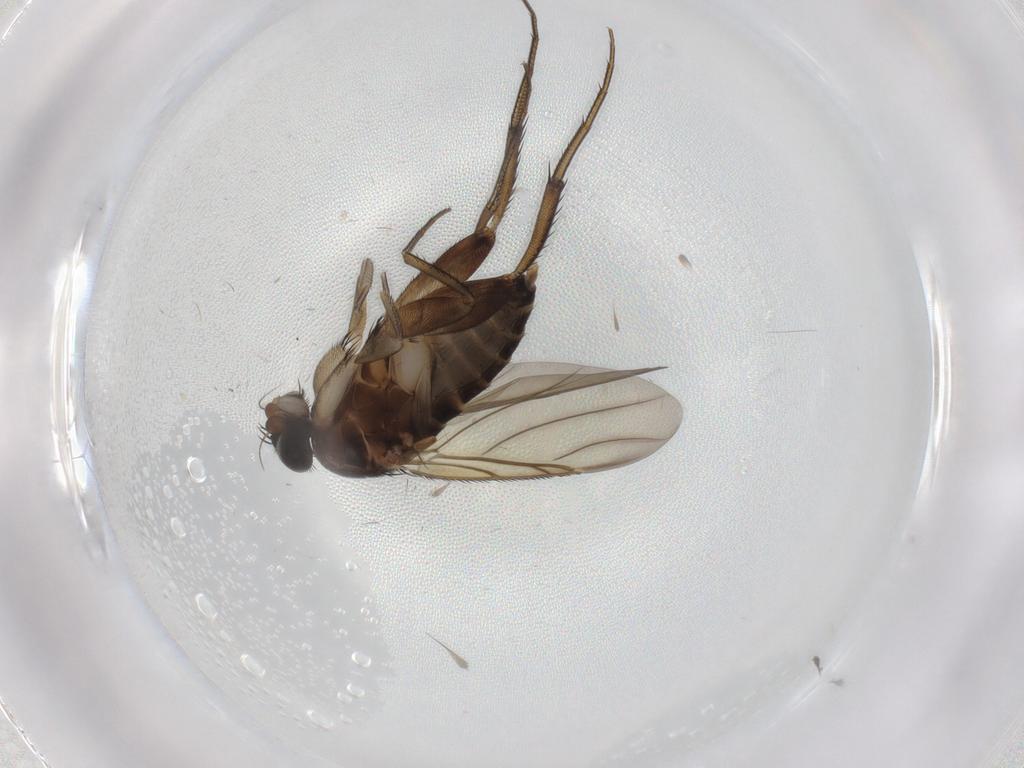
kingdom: Animalia
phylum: Arthropoda
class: Insecta
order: Diptera
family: Phoridae
